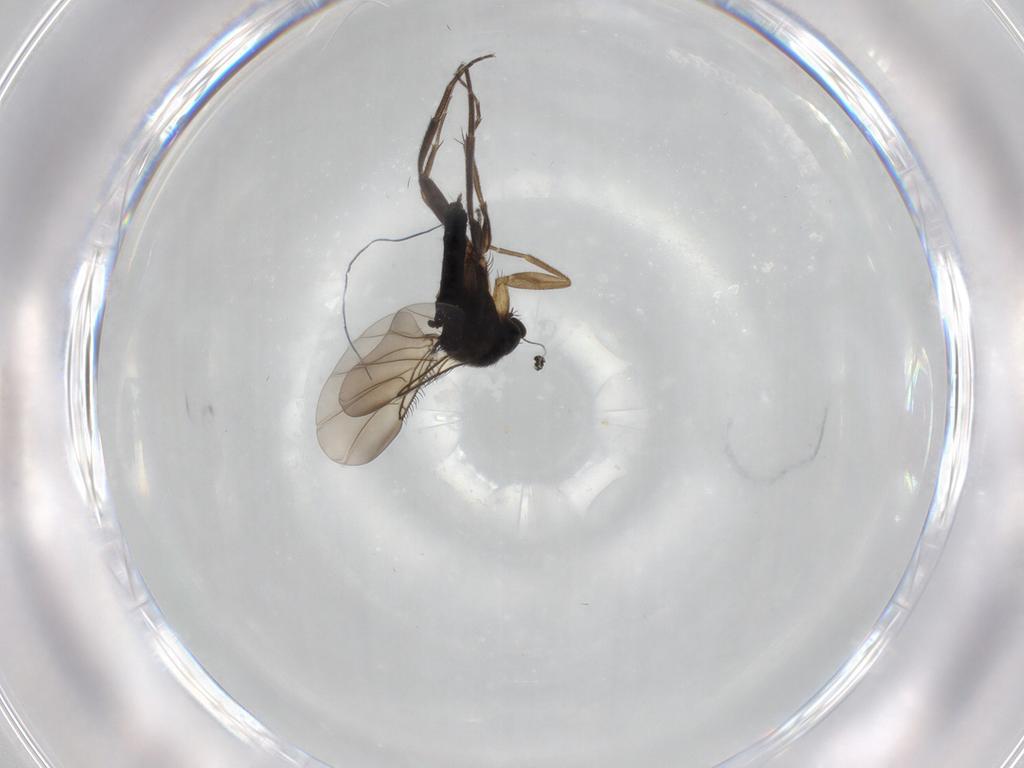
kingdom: Animalia
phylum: Arthropoda
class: Insecta
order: Diptera
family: Phoridae
